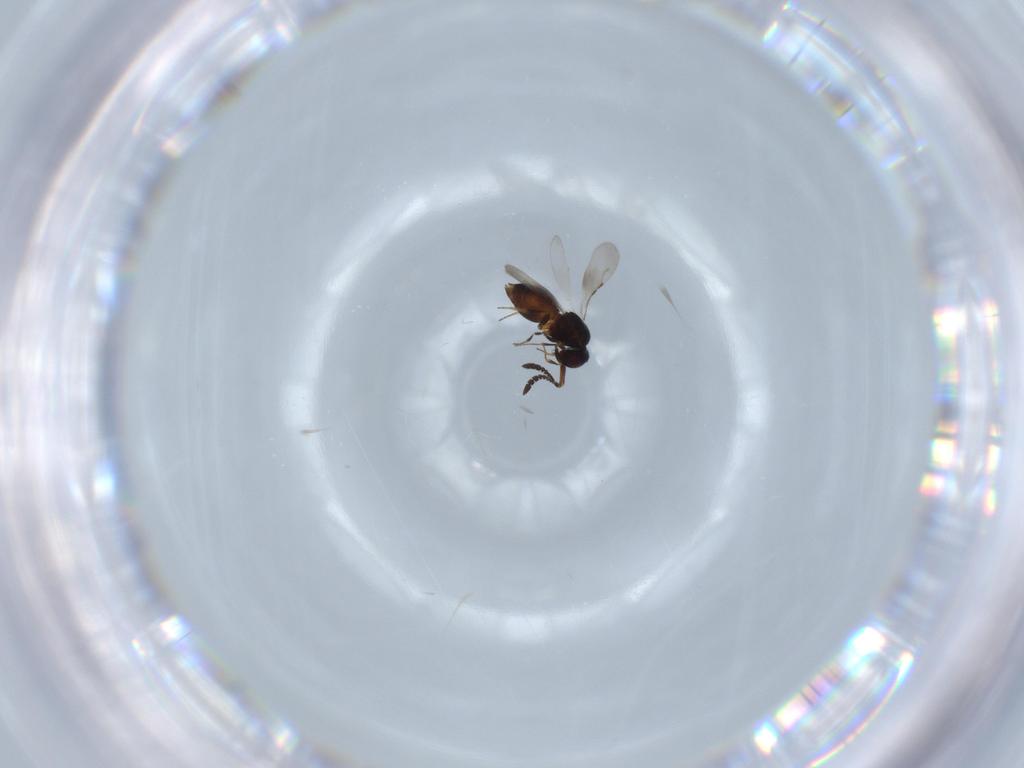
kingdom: Animalia
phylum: Arthropoda
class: Insecta
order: Hymenoptera
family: Ceraphronidae
